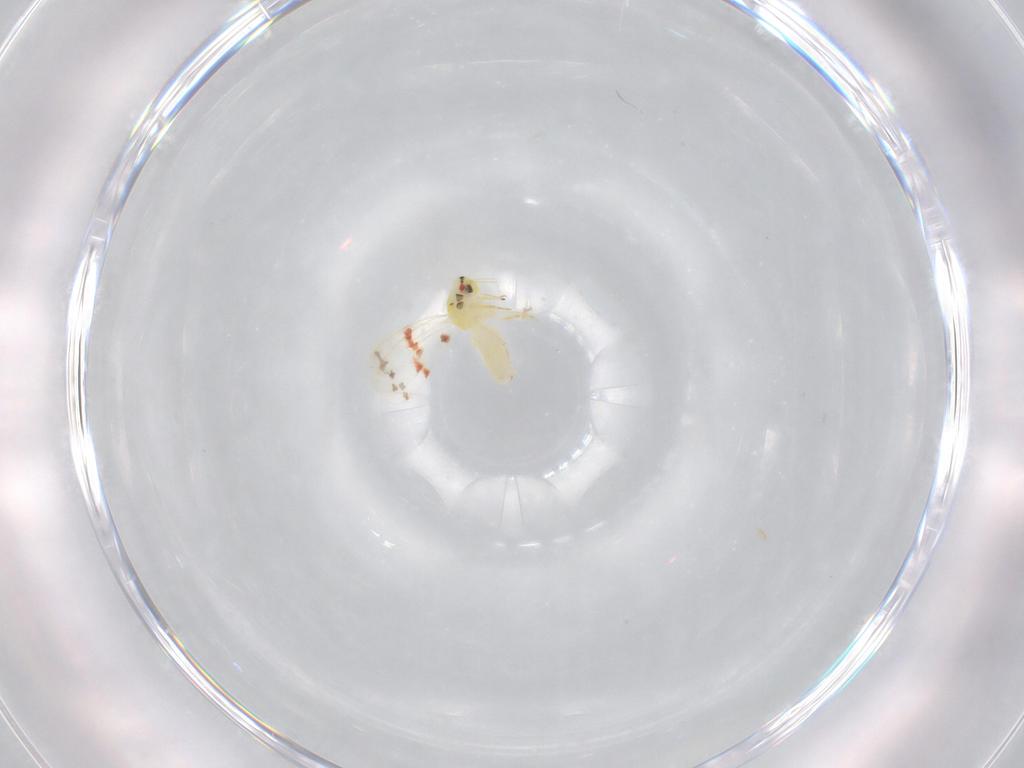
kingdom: Animalia
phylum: Arthropoda
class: Insecta
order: Hemiptera
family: Aleyrodidae
